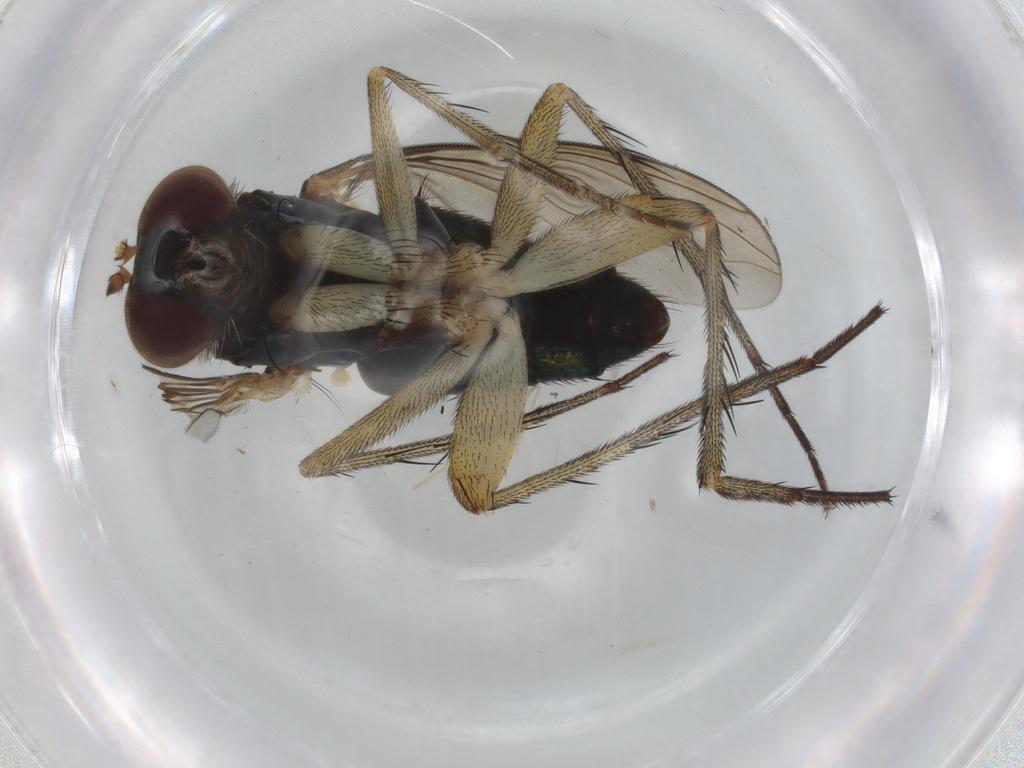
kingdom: Animalia
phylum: Arthropoda
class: Insecta
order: Diptera
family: Dolichopodidae
